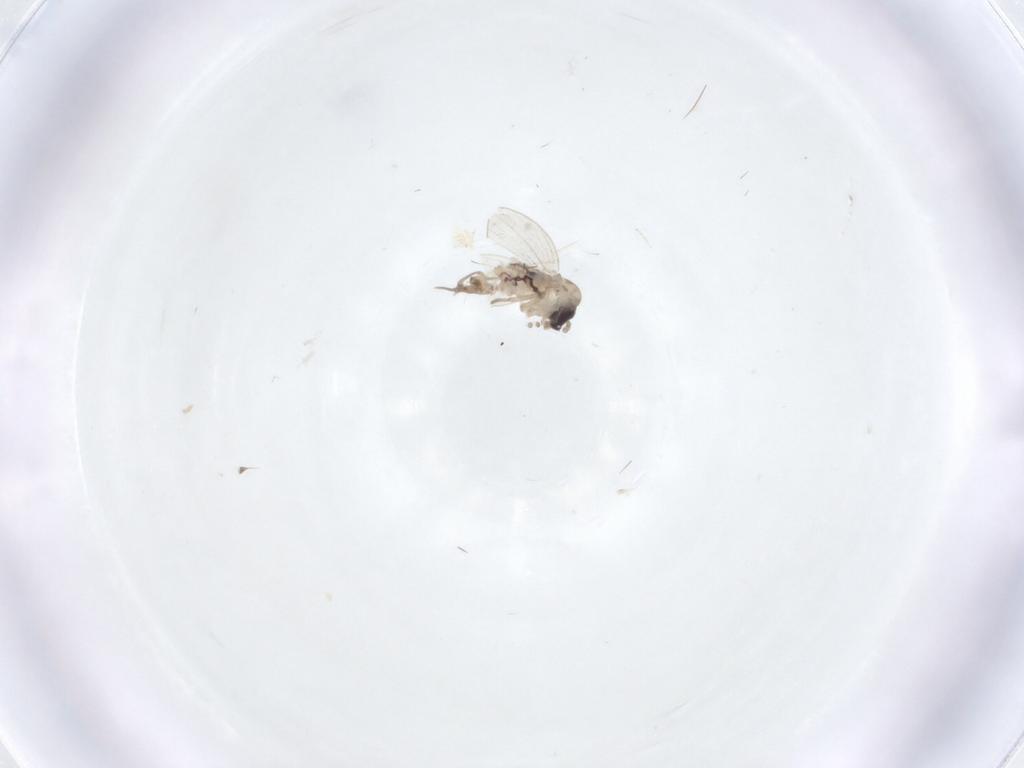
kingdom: Animalia
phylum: Arthropoda
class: Insecta
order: Diptera
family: Psychodidae
